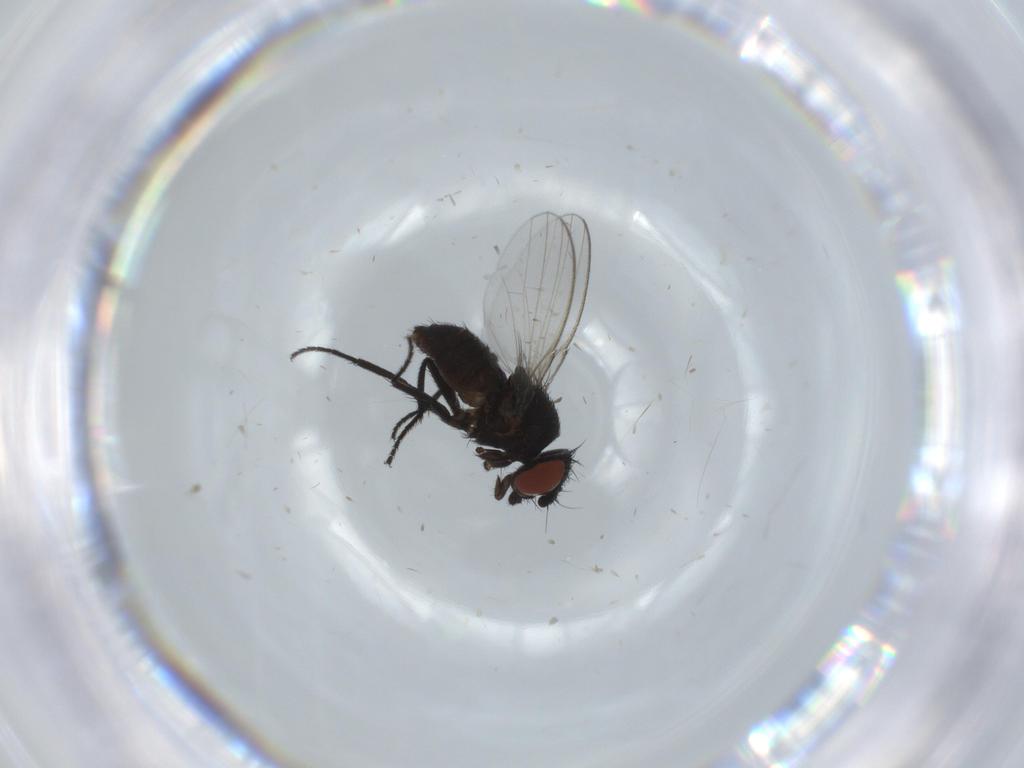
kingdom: Animalia
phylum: Arthropoda
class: Insecta
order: Diptera
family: Milichiidae
